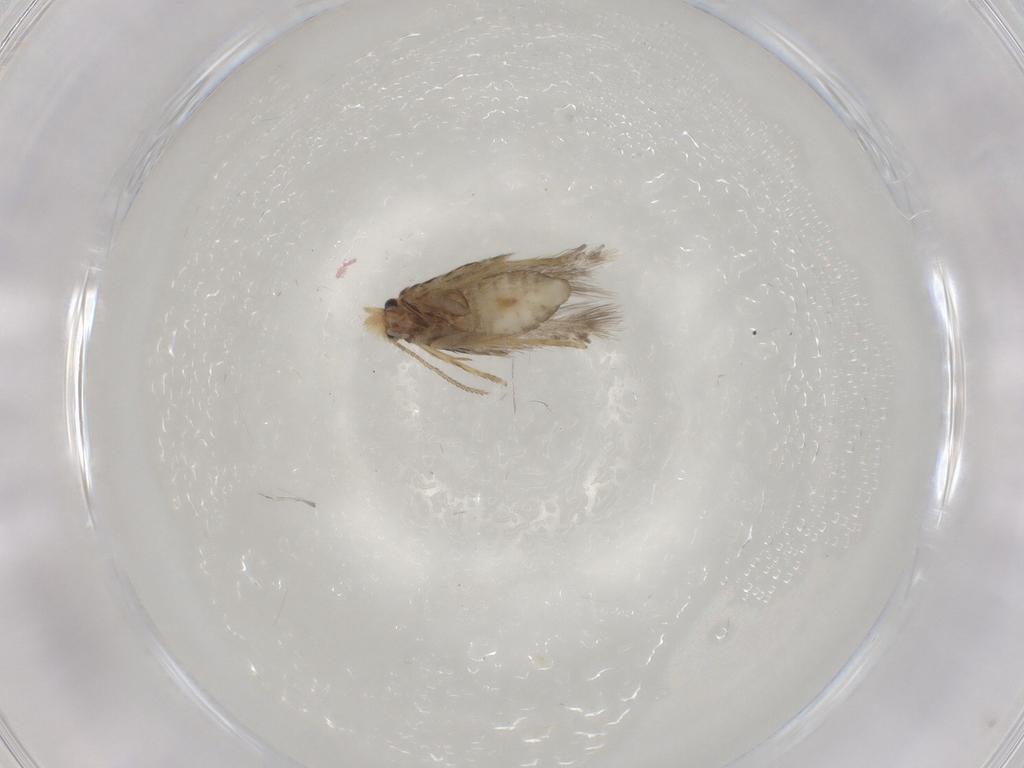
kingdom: Animalia
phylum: Arthropoda
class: Insecta
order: Lepidoptera
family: Nepticulidae
